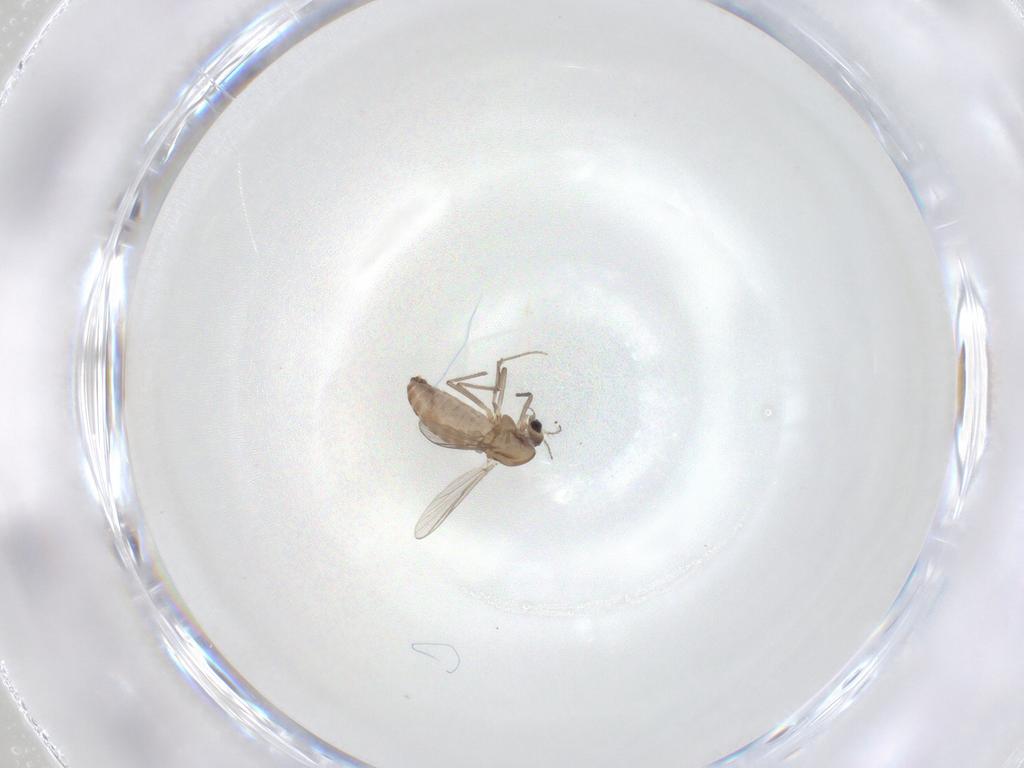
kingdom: Animalia
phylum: Arthropoda
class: Insecta
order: Diptera
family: Chironomidae
